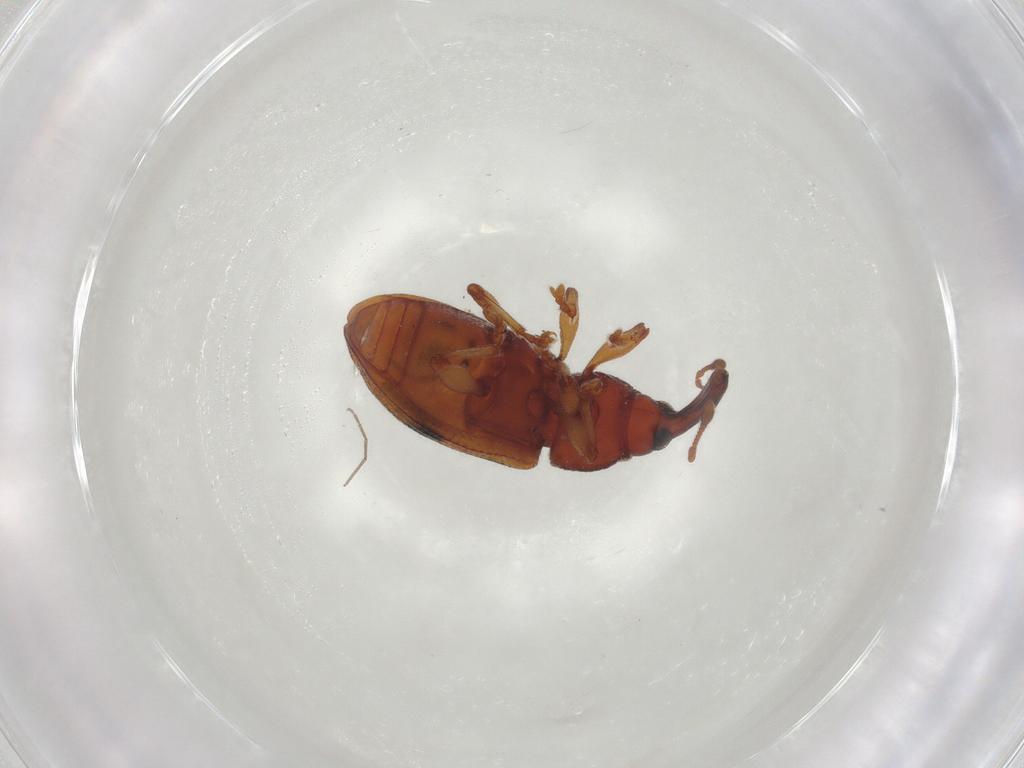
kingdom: Animalia
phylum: Arthropoda
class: Insecta
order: Coleoptera
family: Curculionidae
